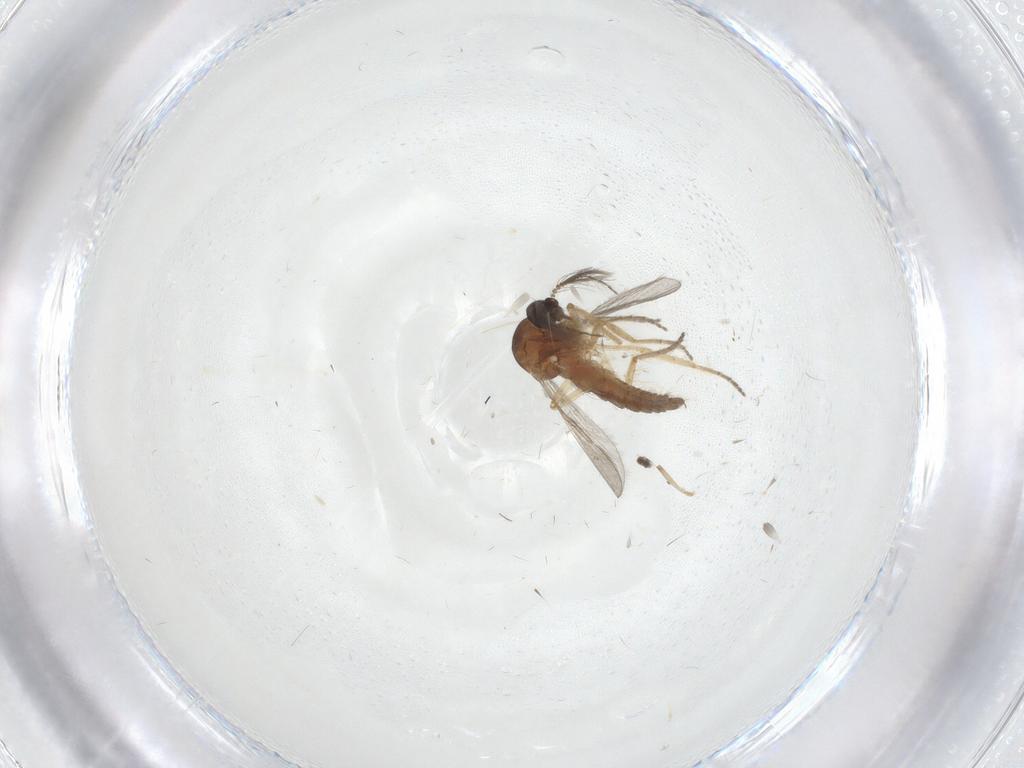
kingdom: Animalia
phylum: Arthropoda
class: Insecta
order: Diptera
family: Ceratopogonidae
